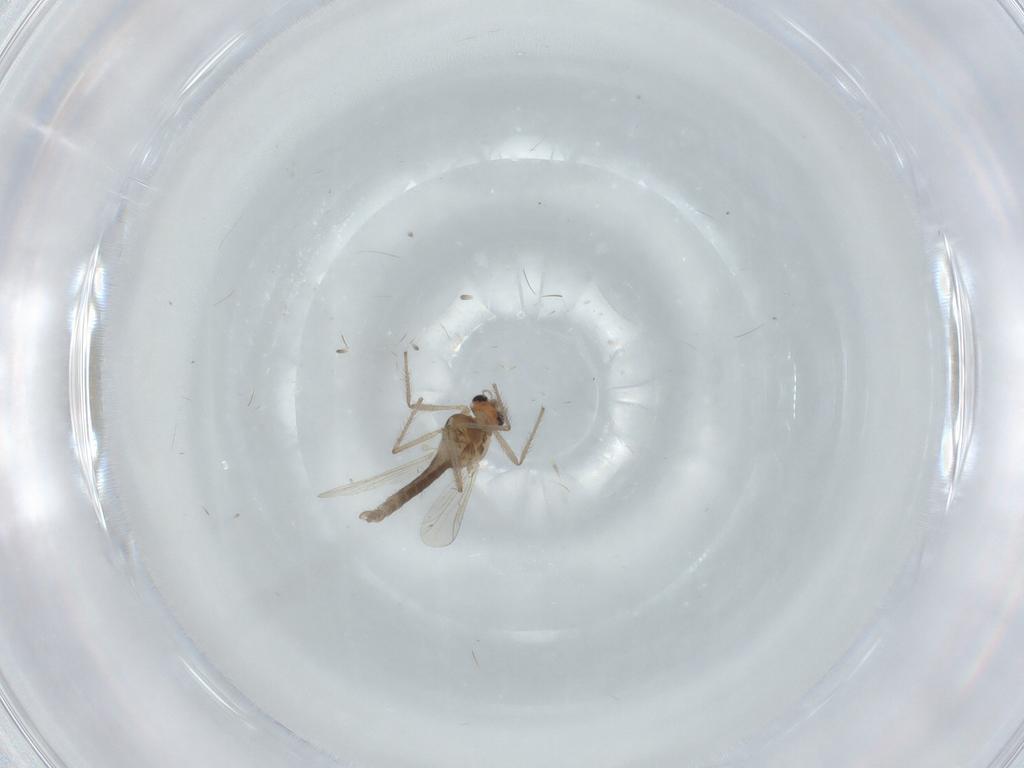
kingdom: Animalia
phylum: Arthropoda
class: Insecta
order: Diptera
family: Chironomidae
